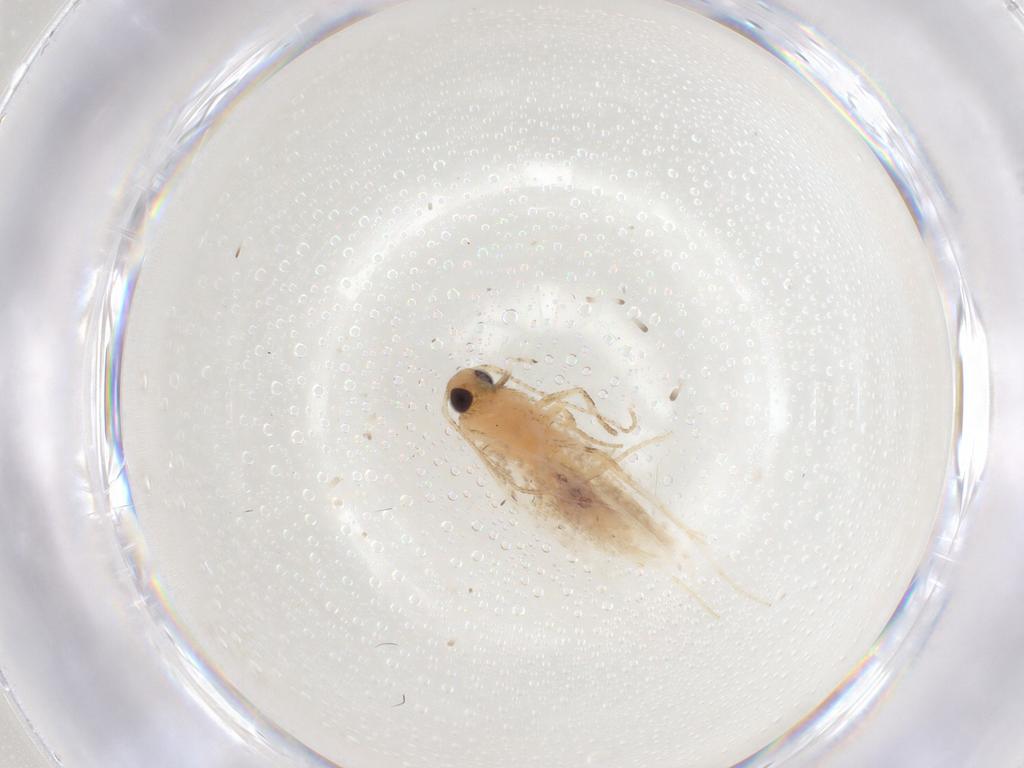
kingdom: Animalia
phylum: Arthropoda
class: Insecta
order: Lepidoptera
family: Gelechiidae
